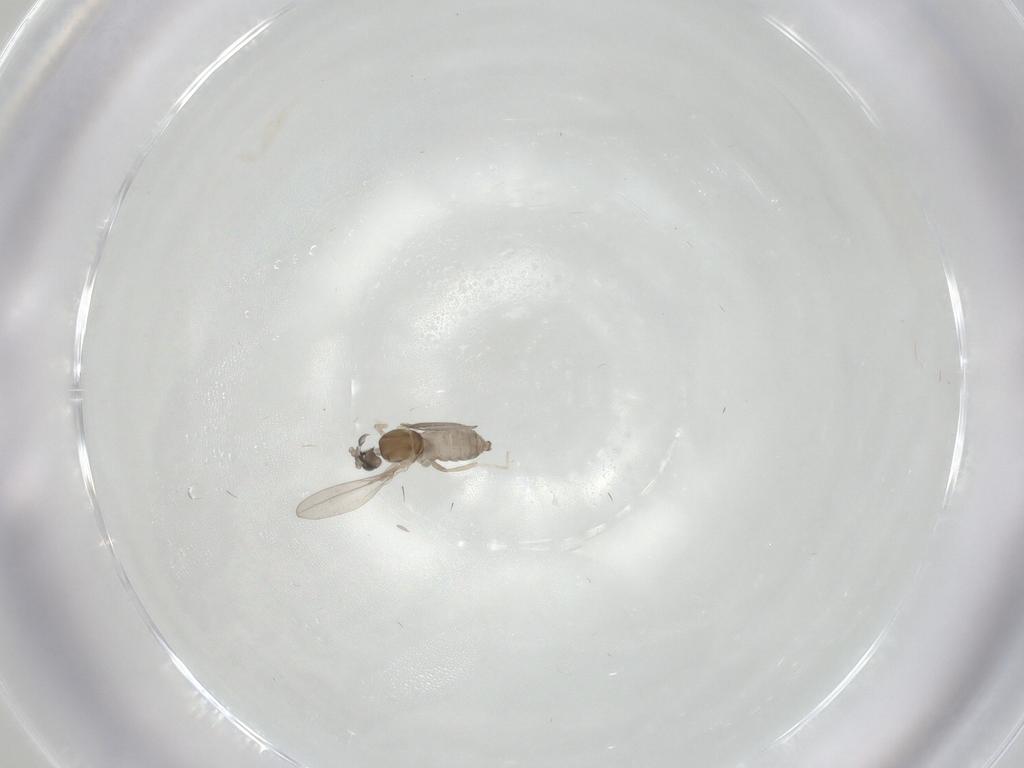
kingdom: Animalia
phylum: Arthropoda
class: Insecta
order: Diptera
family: Cecidomyiidae
